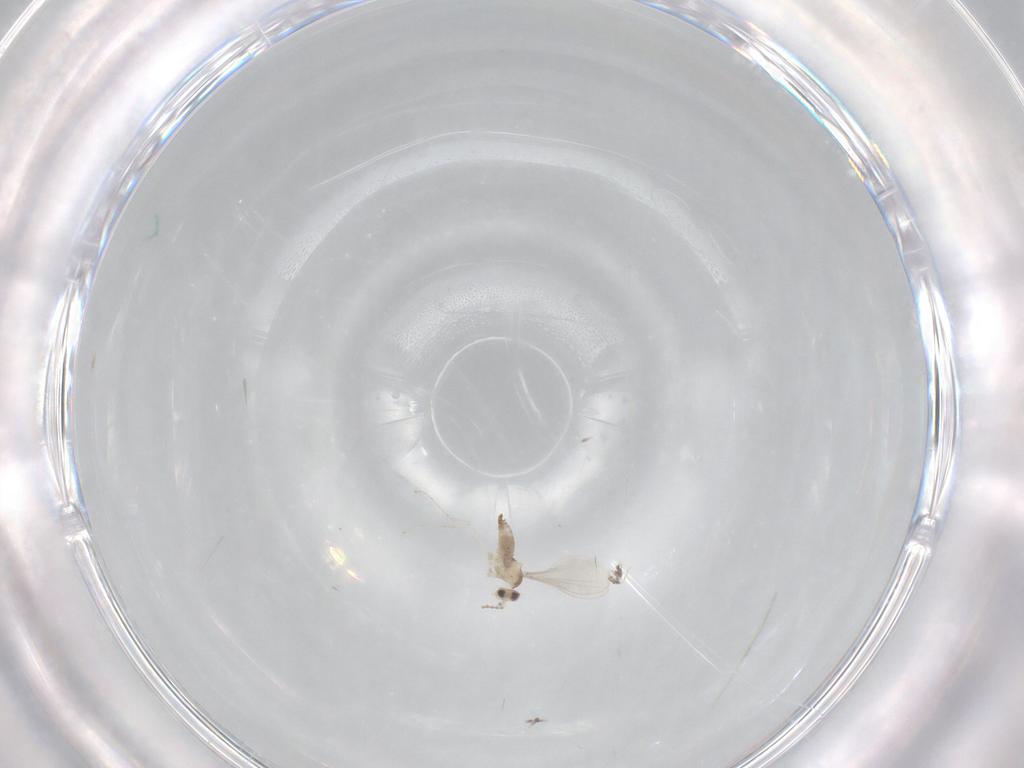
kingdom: Animalia
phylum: Arthropoda
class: Insecta
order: Diptera
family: Cecidomyiidae
